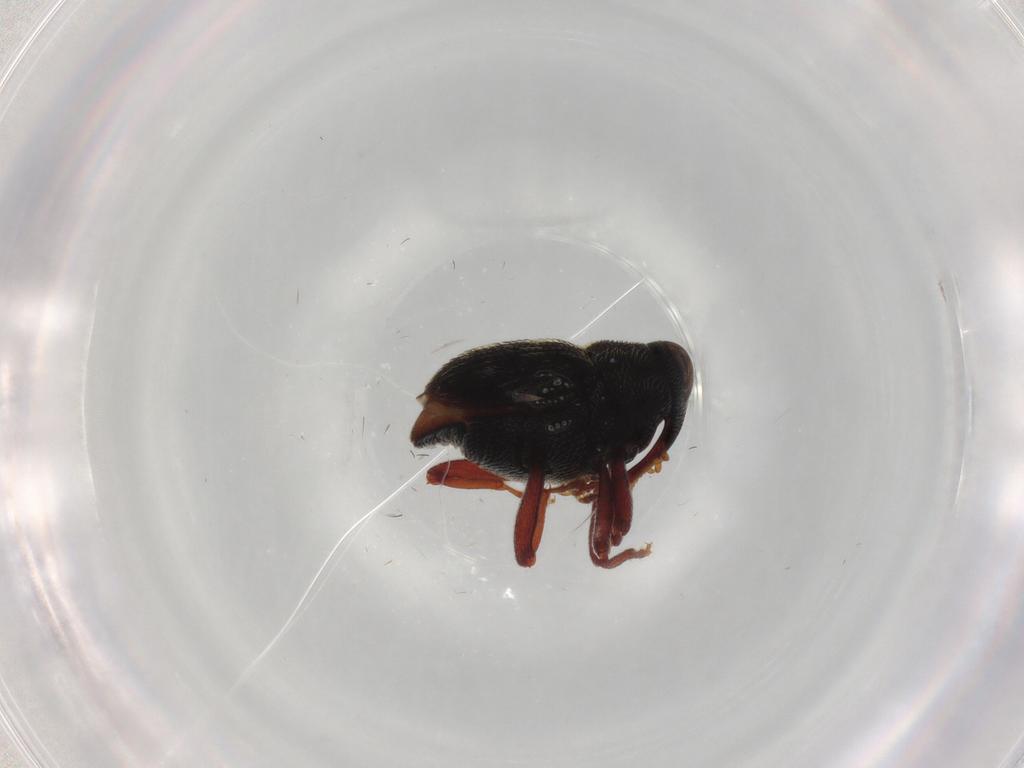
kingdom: Animalia
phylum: Arthropoda
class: Insecta
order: Coleoptera
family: Curculionidae
